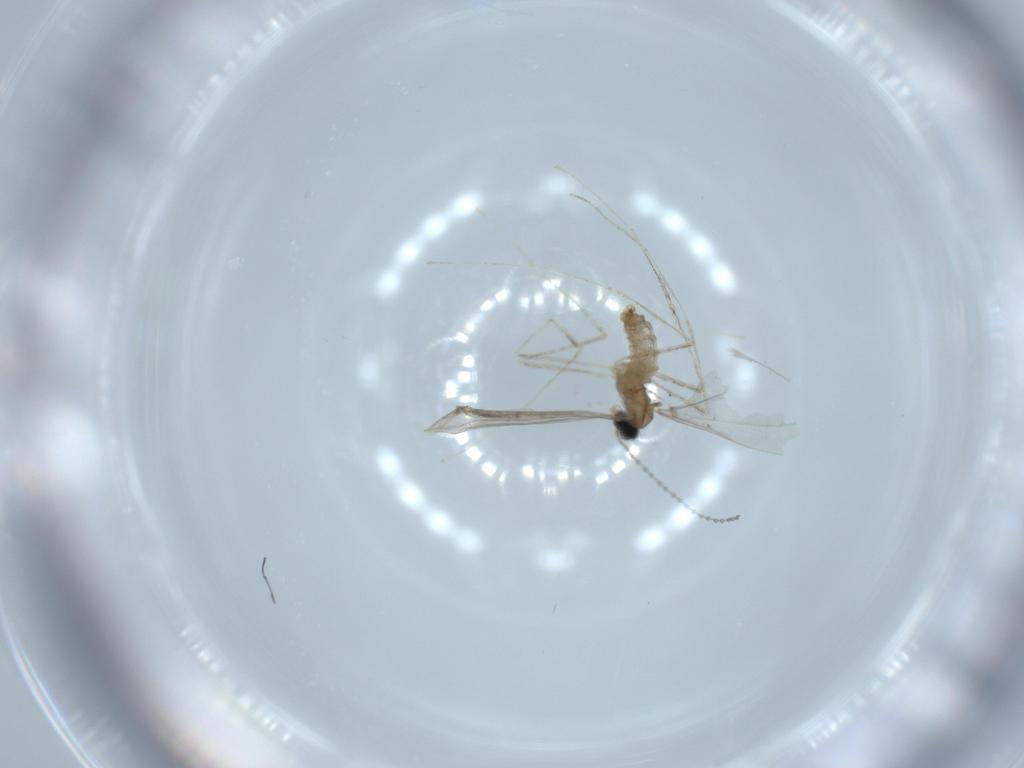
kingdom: Animalia
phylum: Arthropoda
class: Insecta
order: Diptera
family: Cecidomyiidae
